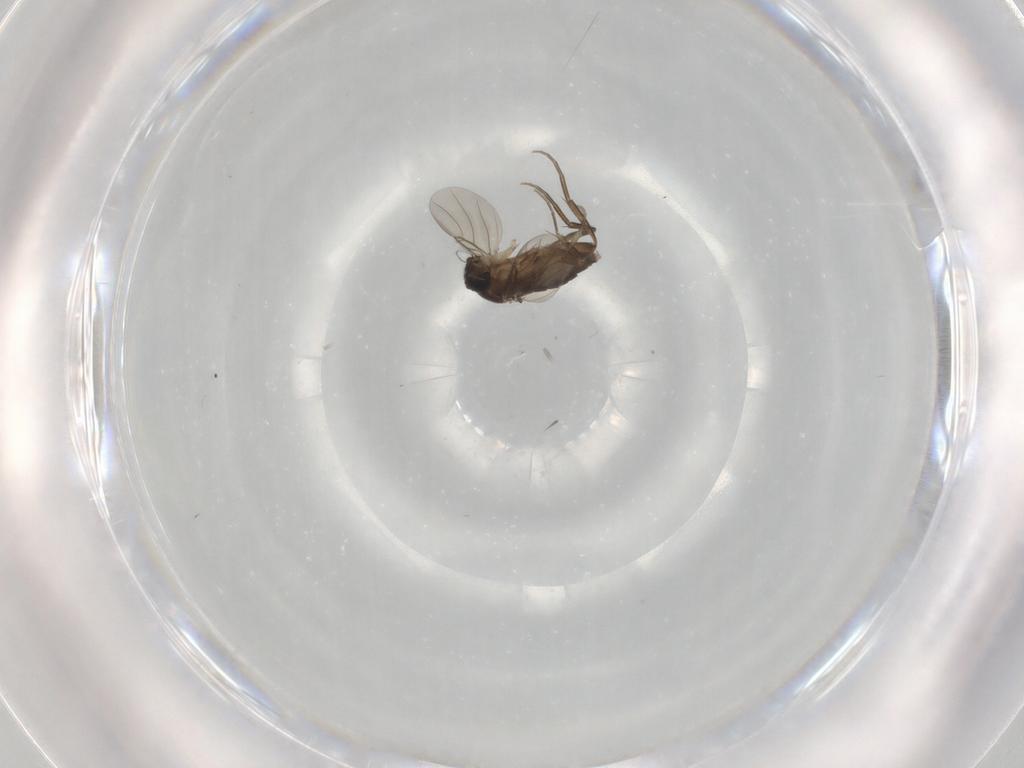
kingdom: Animalia
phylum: Arthropoda
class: Insecta
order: Diptera
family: Phoridae
